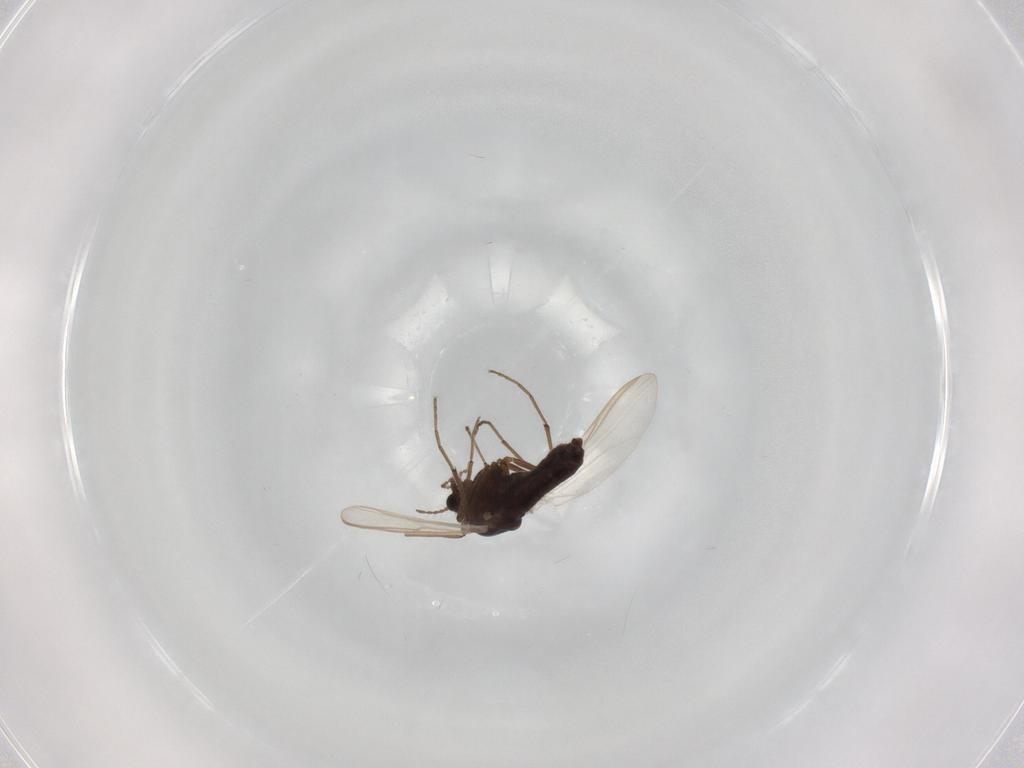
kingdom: Animalia
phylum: Arthropoda
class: Insecta
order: Diptera
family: Chironomidae
